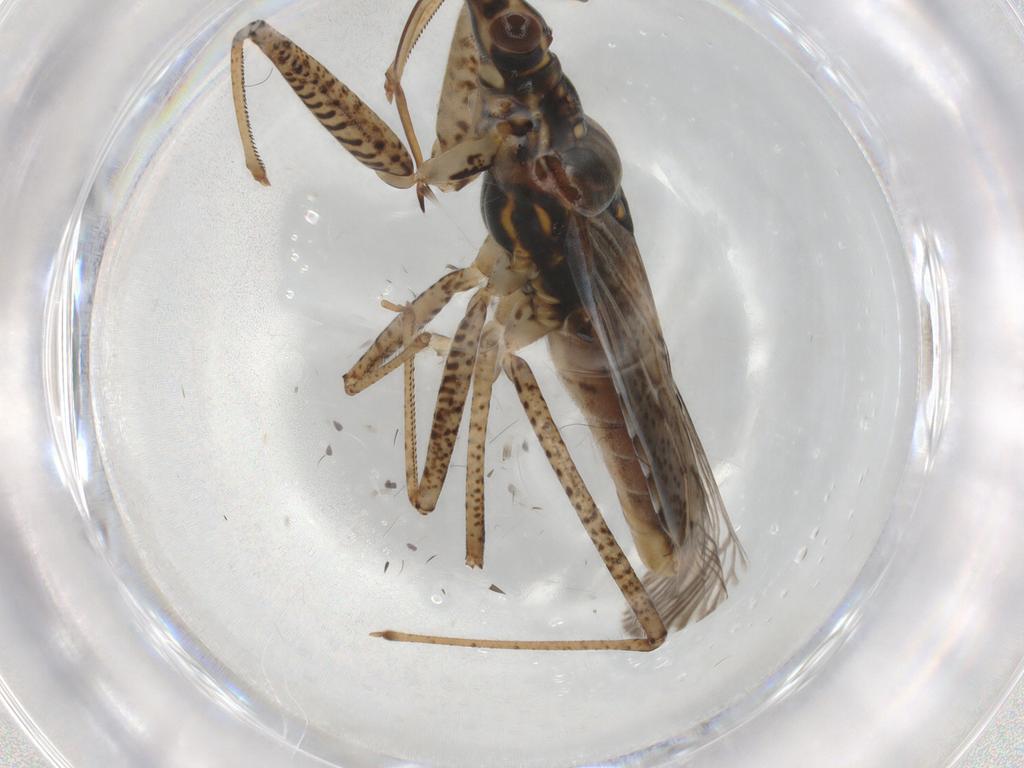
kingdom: Animalia
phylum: Arthropoda
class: Insecta
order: Hemiptera
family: Nabidae
